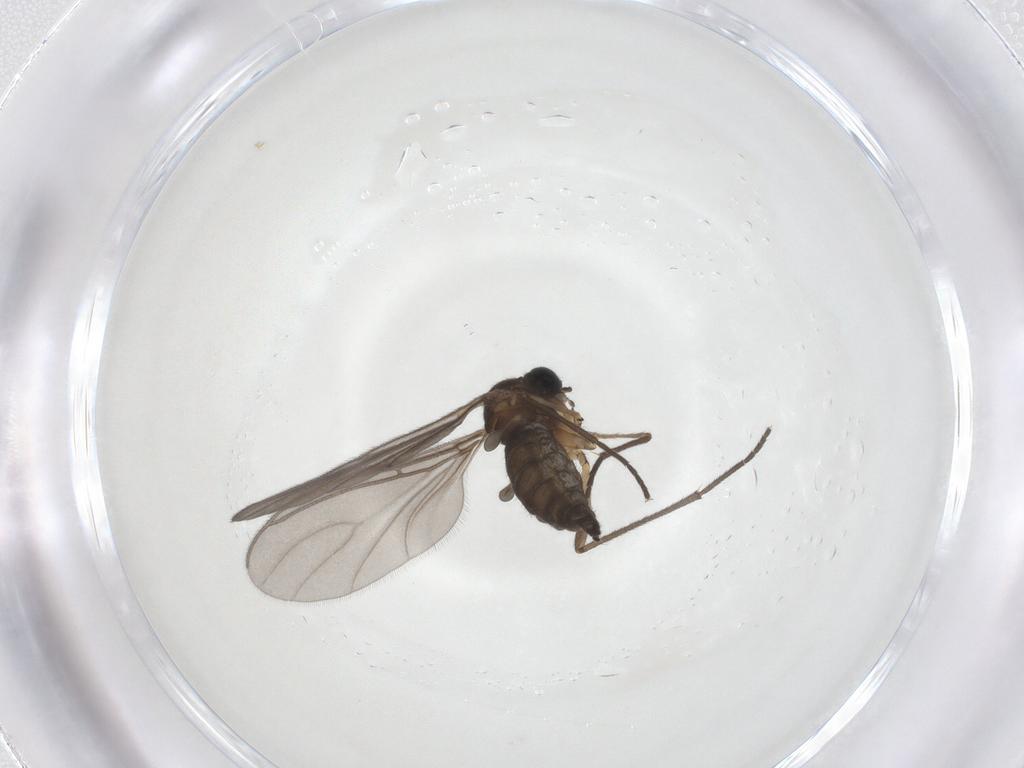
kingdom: Animalia
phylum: Arthropoda
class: Insecta
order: Diptera
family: Sciaridae
